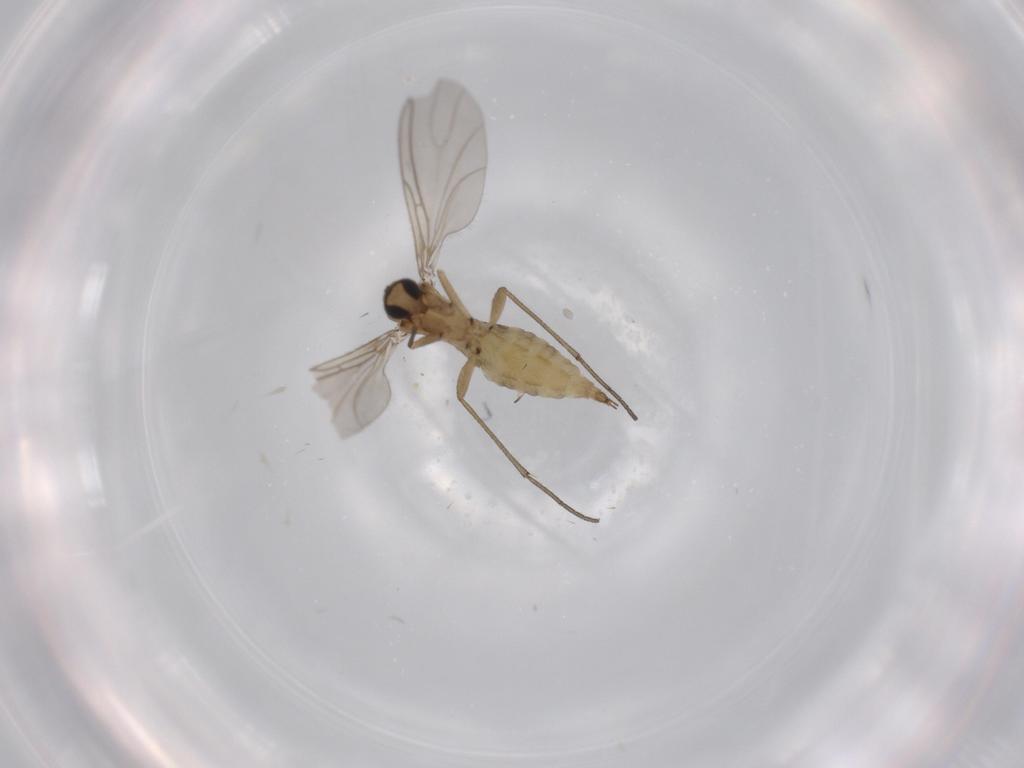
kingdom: Animalia
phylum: Arthropoda
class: Insecta
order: Diptera
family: Sciaridae
